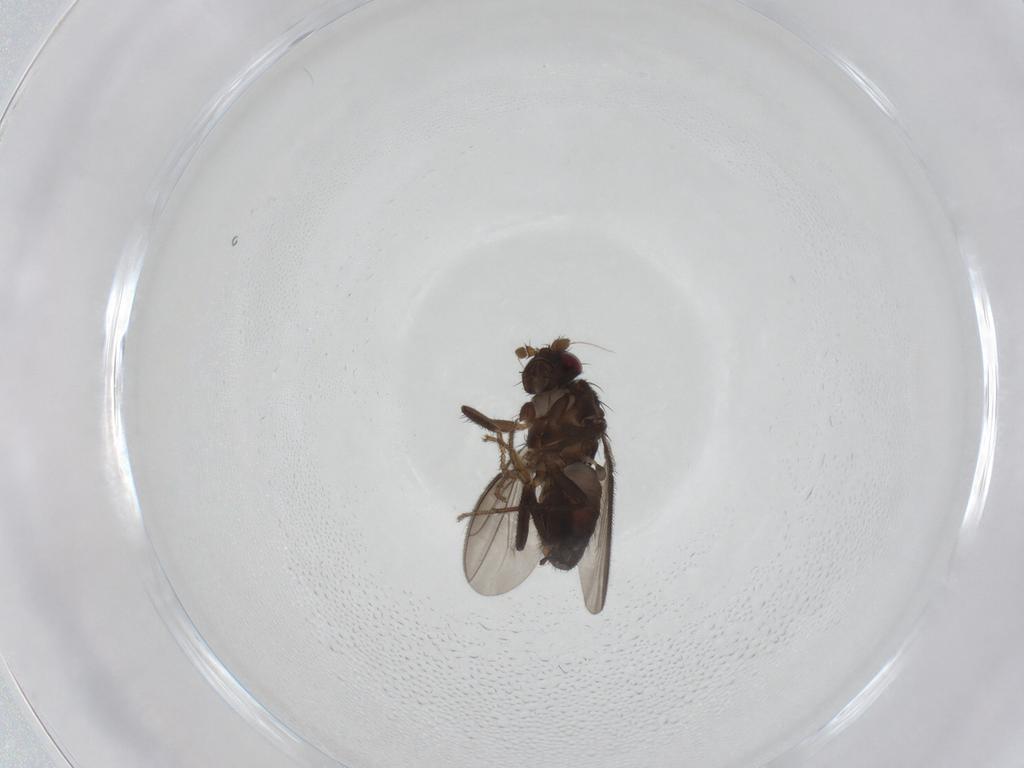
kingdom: Animalia
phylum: Arthropoda
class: Insecta
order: Diptera
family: Sphaeroceridae
